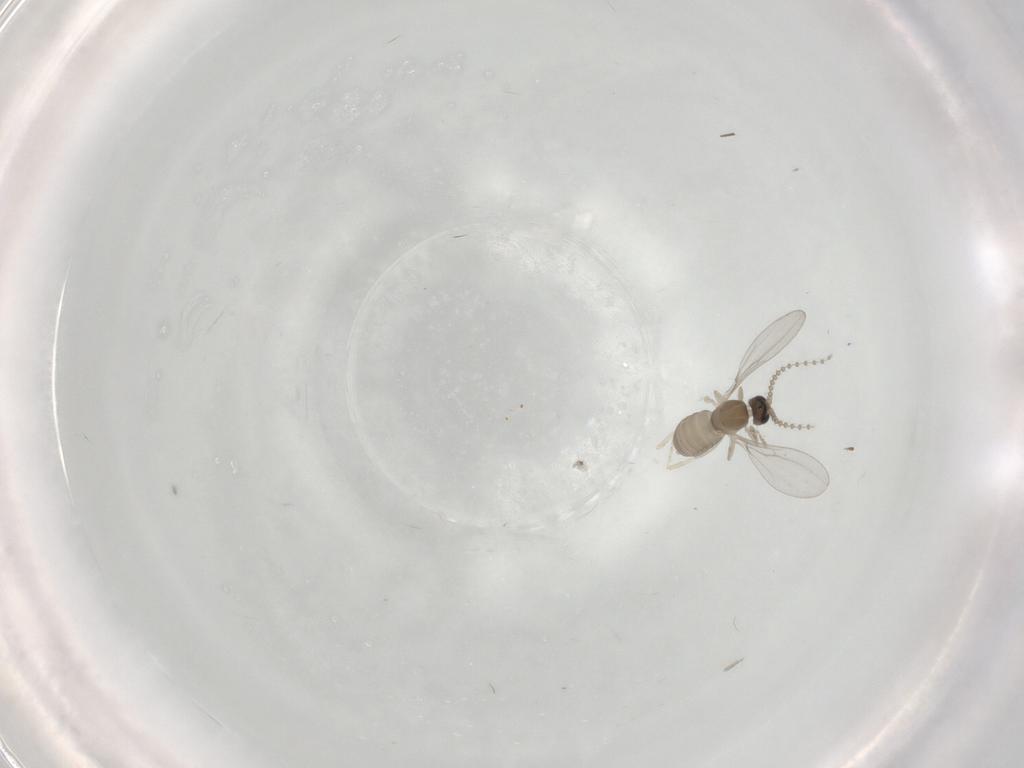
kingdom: Animalia
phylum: Arthropoda
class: Insecta
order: Diptera
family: Cecidomyiidae
